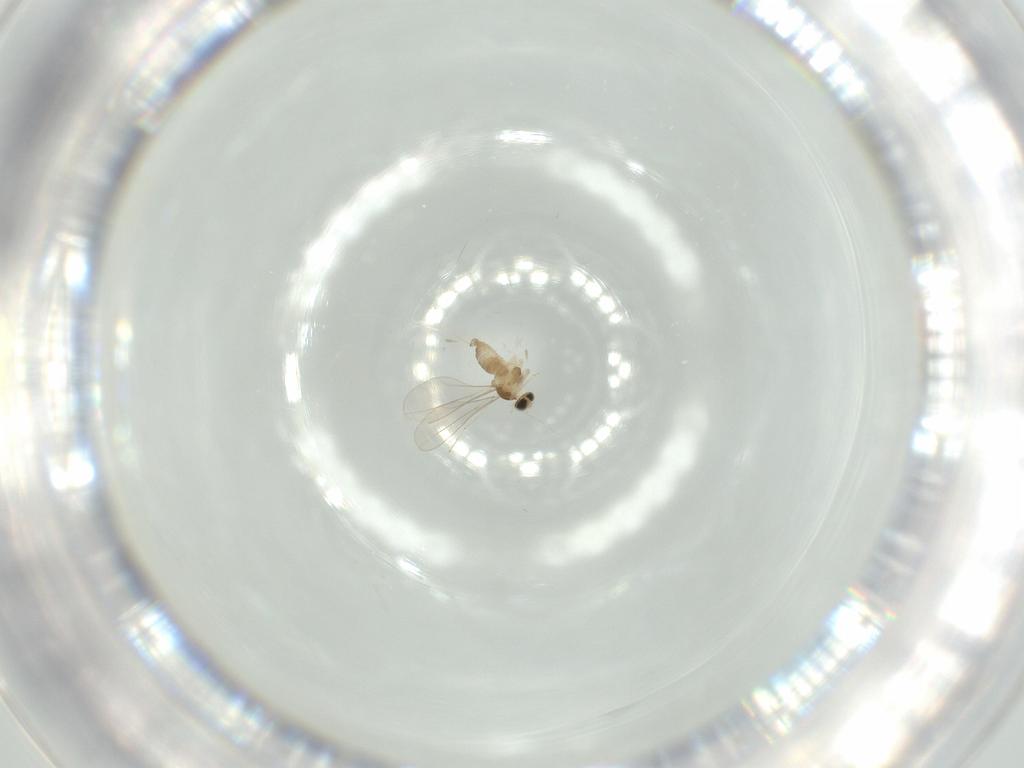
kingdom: Animalia
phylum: Arthropoda
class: Insecta
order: Diptera
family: Cecidomyiidae
